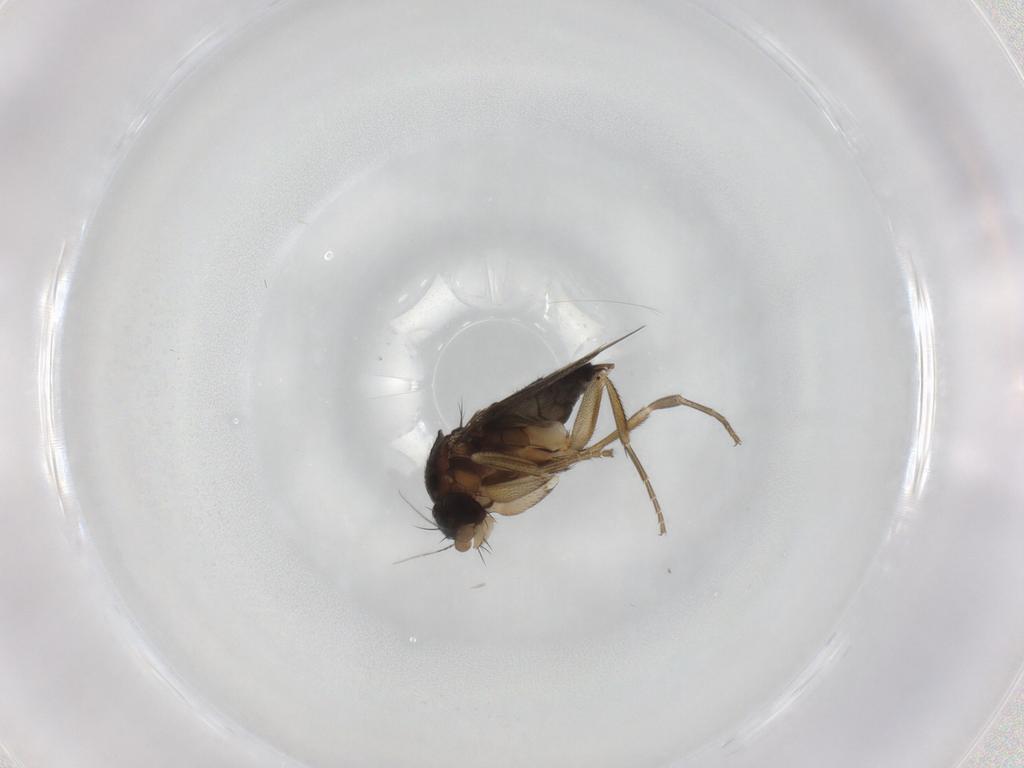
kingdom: Animalia
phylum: Arthropoda
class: Insecta
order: Diptera
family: Phoridae
